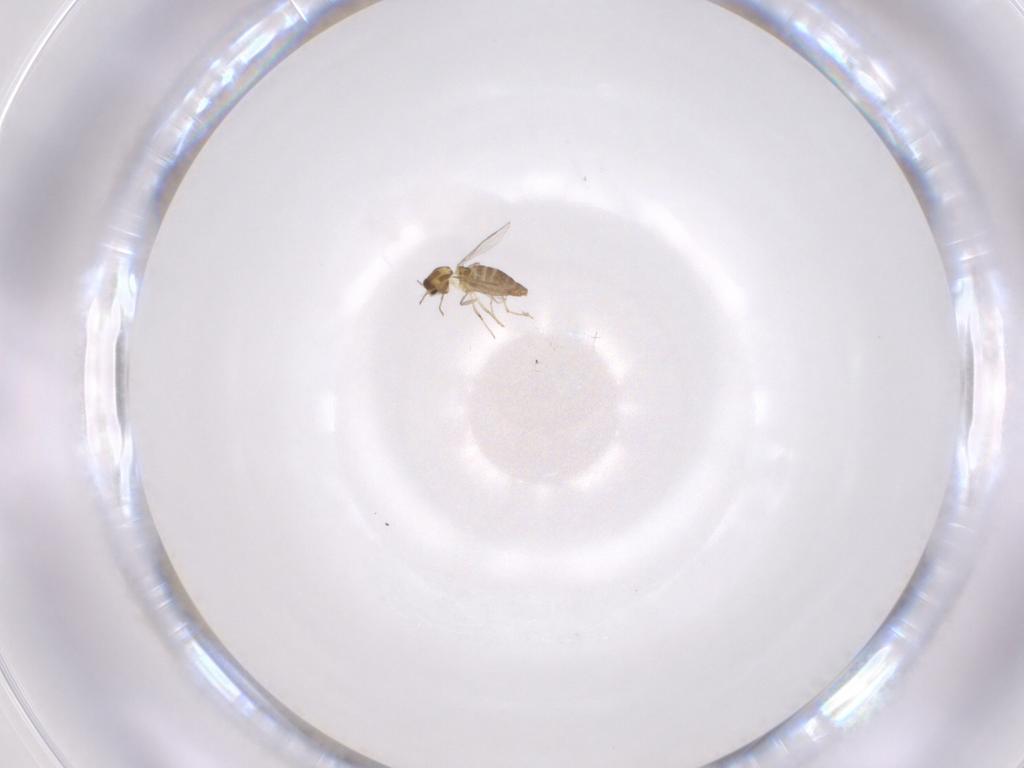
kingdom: Animalia
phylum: Arthropoda
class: Insecta
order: Diptera
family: Chironomidae
